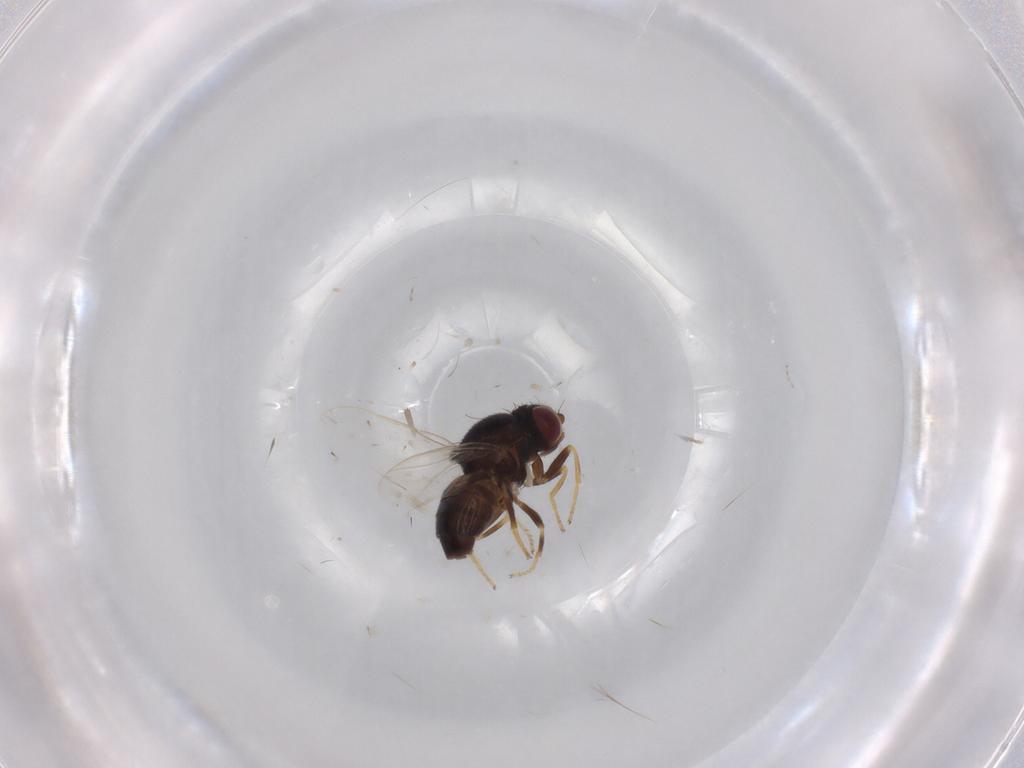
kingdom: Animalia
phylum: Arthropoda
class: Insecta
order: Diptera
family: Chloropidae
